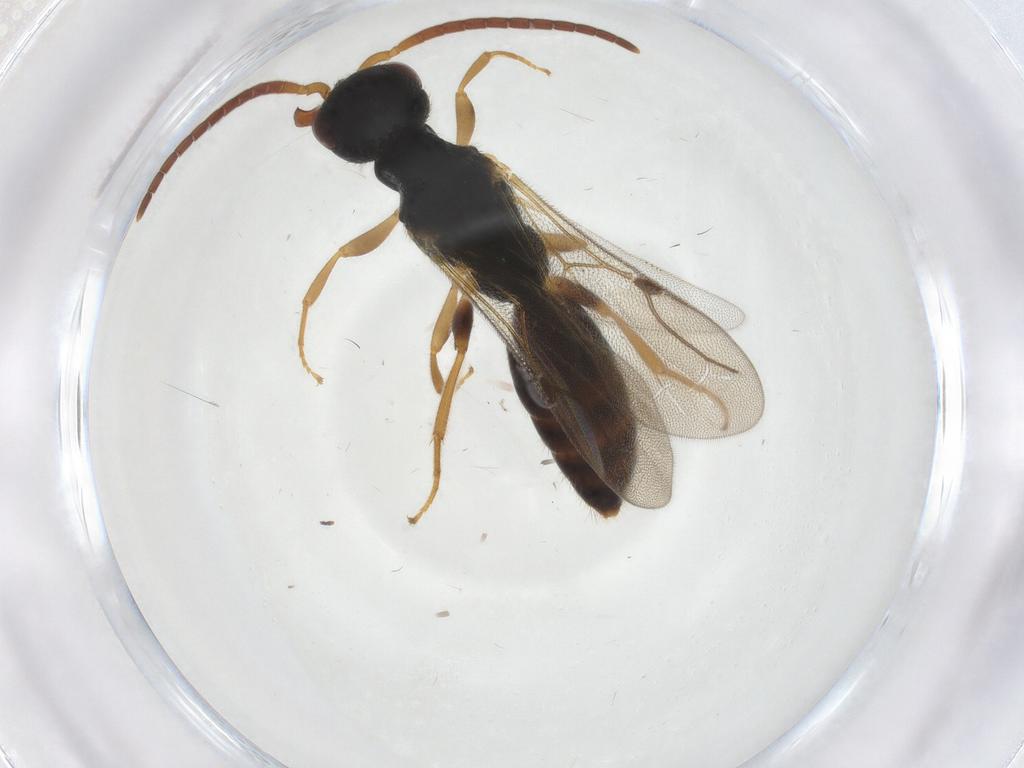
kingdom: Animalia
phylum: Arthropoda
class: Insecta
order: Hymenoptera
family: Bethylidae
